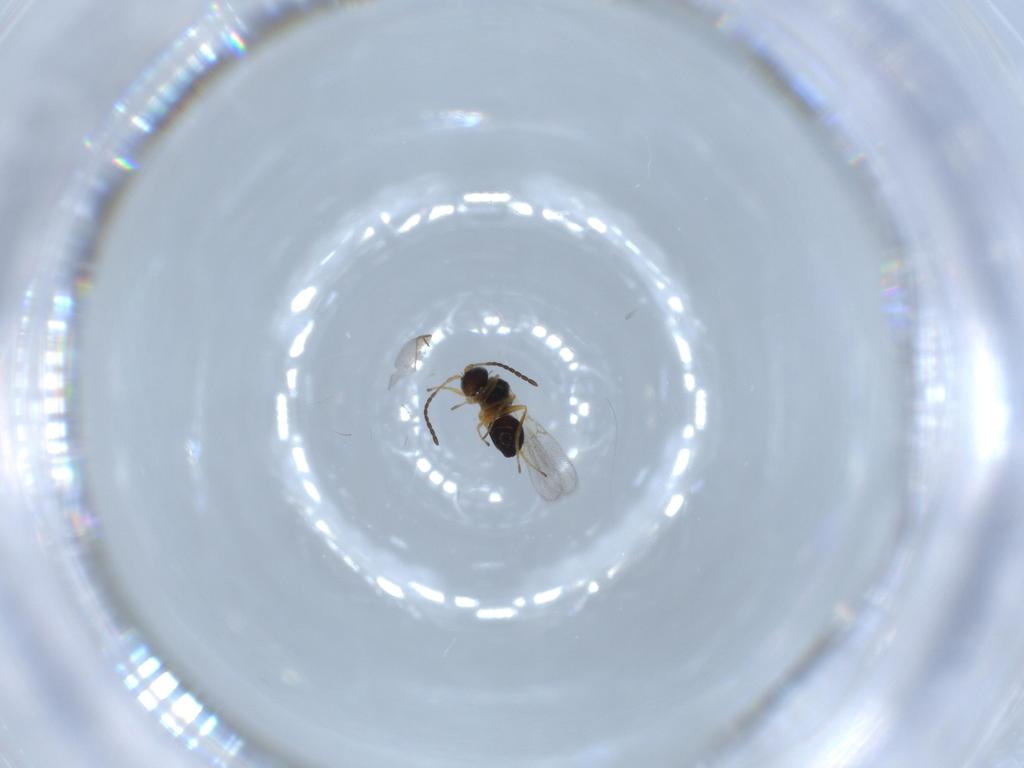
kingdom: Animalia
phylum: Arthropoda
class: Insecta
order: Hymenoptera
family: Figitidae
